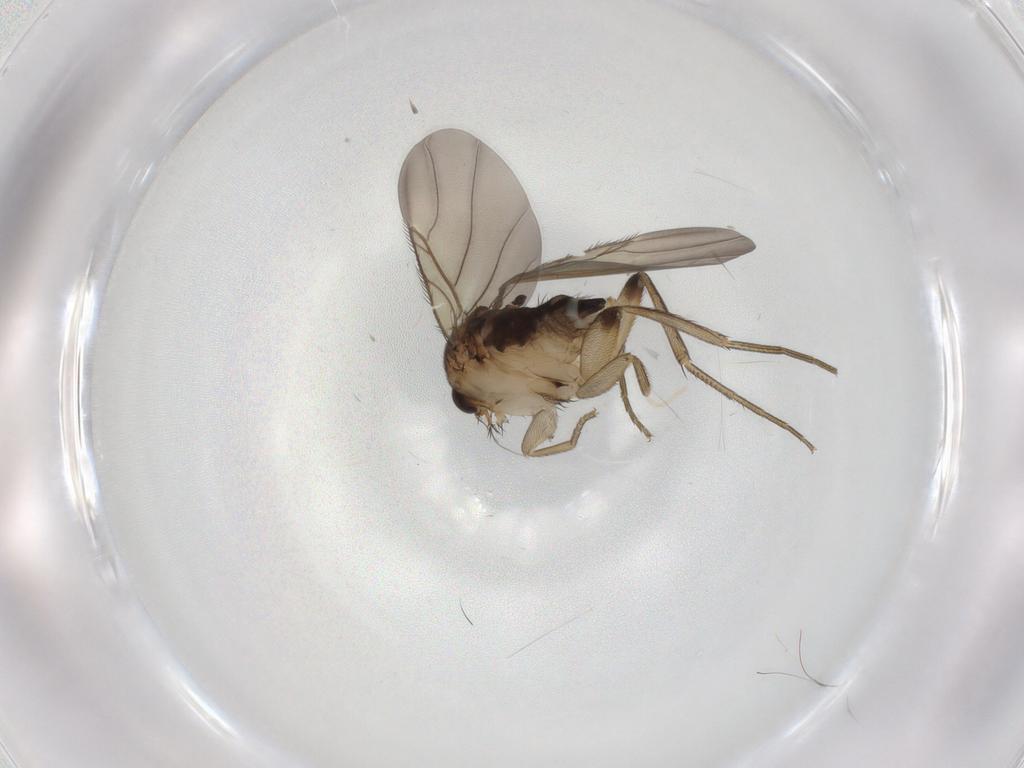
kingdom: Animalia
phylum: Arthropoda
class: Insecta
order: Diptera
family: Phoridae
